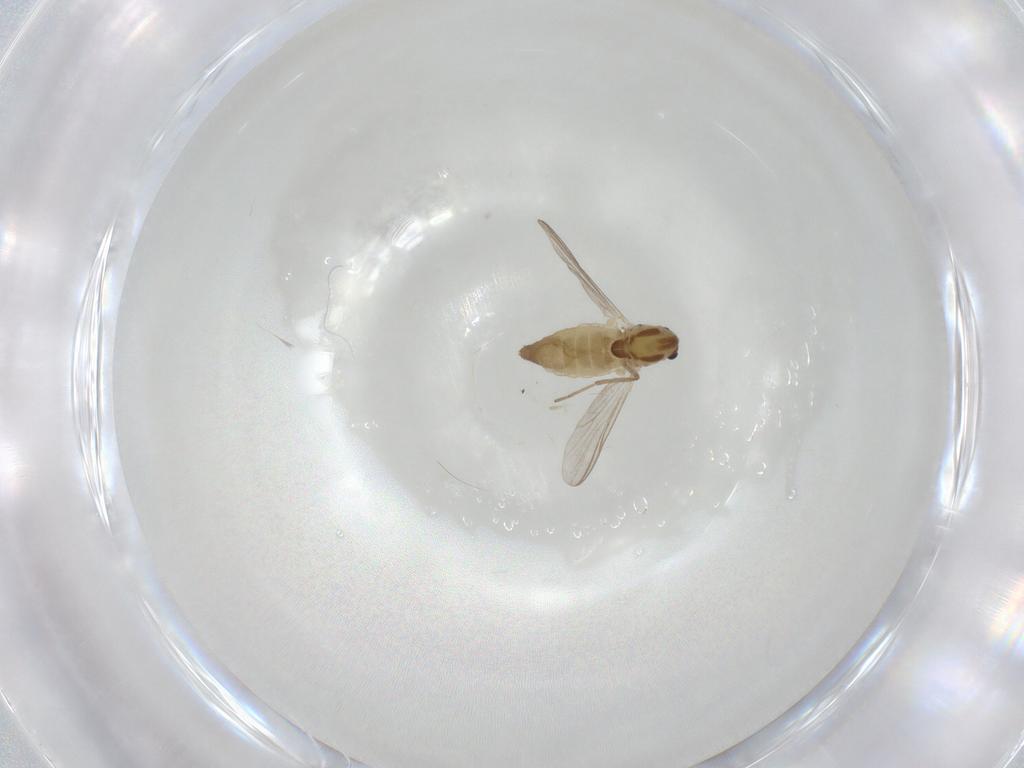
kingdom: Animalia
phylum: Arthropoda
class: Insecta
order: Diptera
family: Chironomidae
